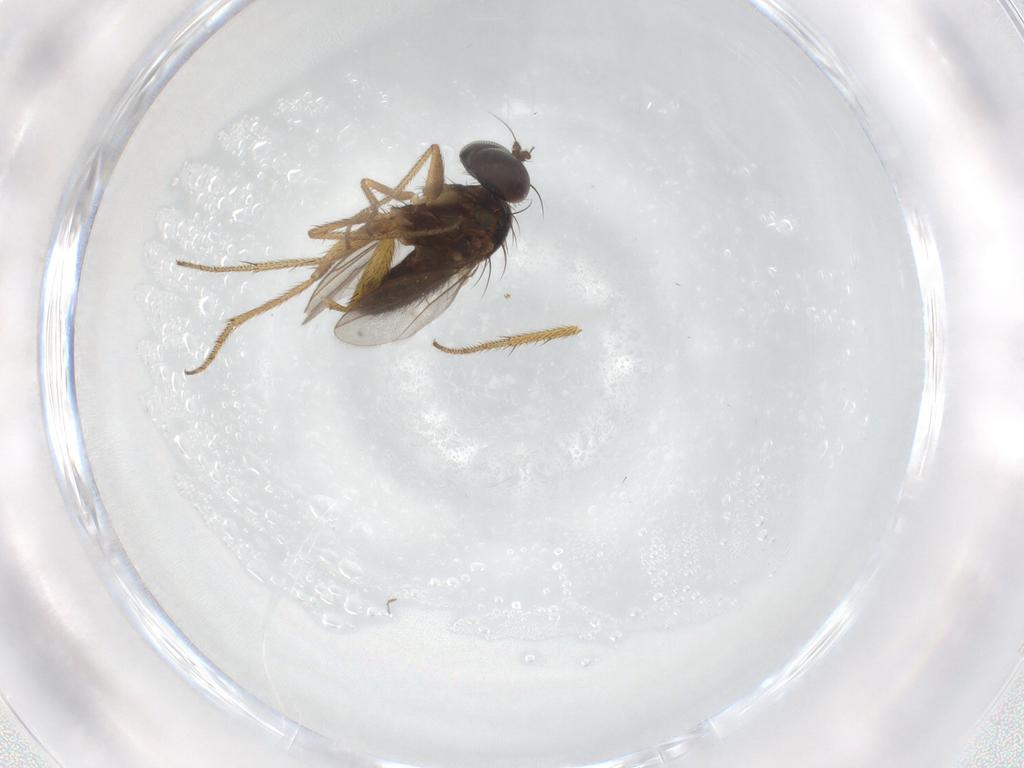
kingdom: Animalia
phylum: Arthropoda
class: Insecta
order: Diptera
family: Dolichopodidae
